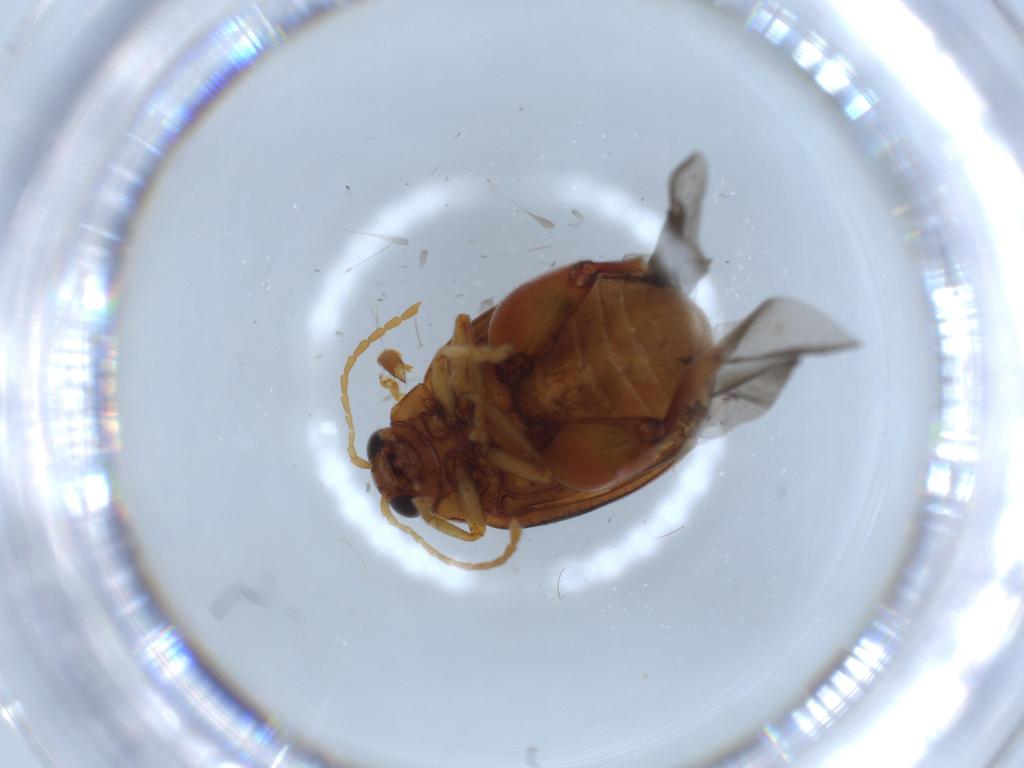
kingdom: Animalia
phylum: Arthropoda
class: Insecta
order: Coleoptera
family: Chrysomelidae
